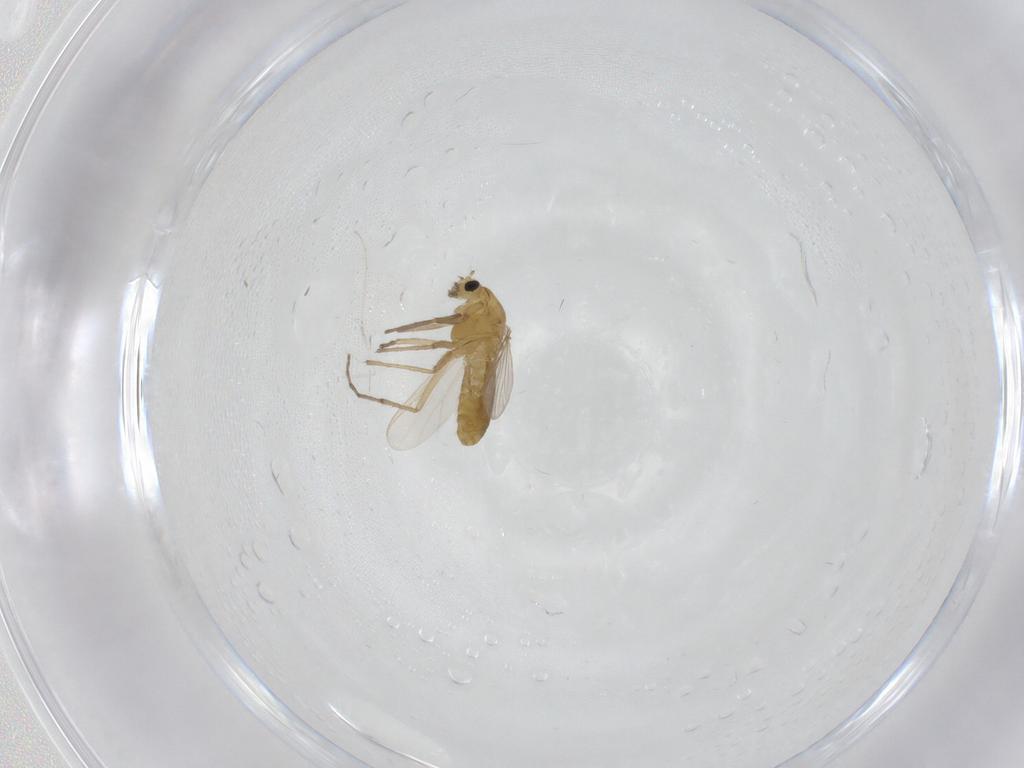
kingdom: Animalia
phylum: Arthropoda
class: Insecta
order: Diptera
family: Chironomidae
